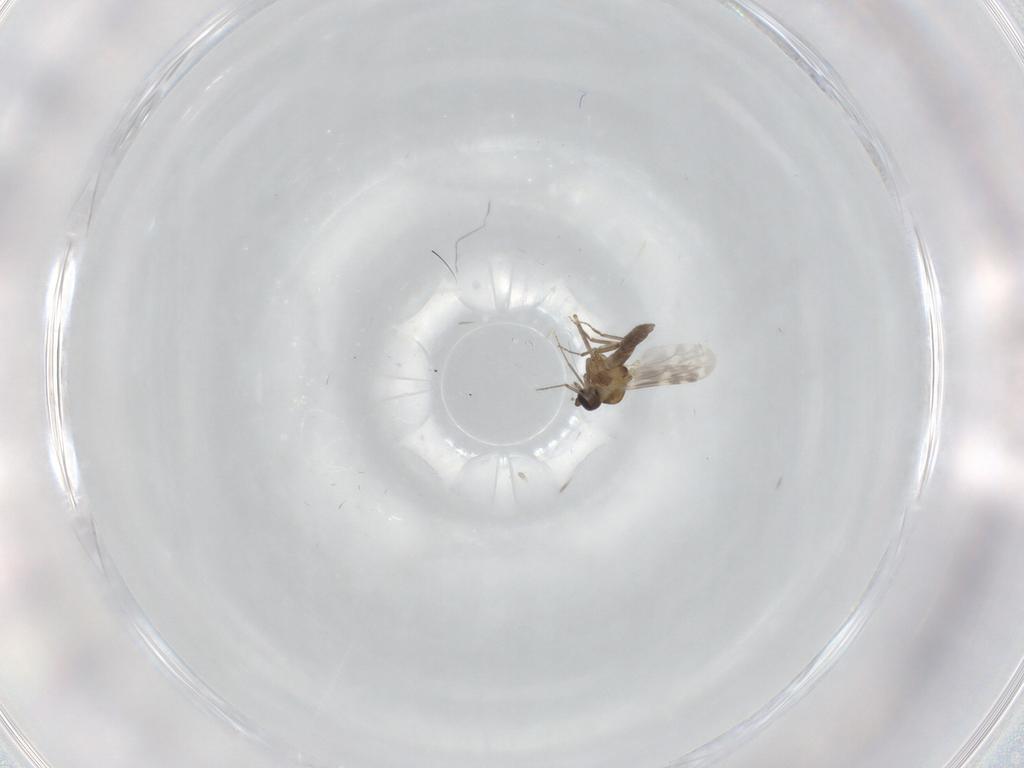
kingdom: Animalia
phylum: Arthropoda
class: Insecta
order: Diptera
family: Ceratopogonidae
